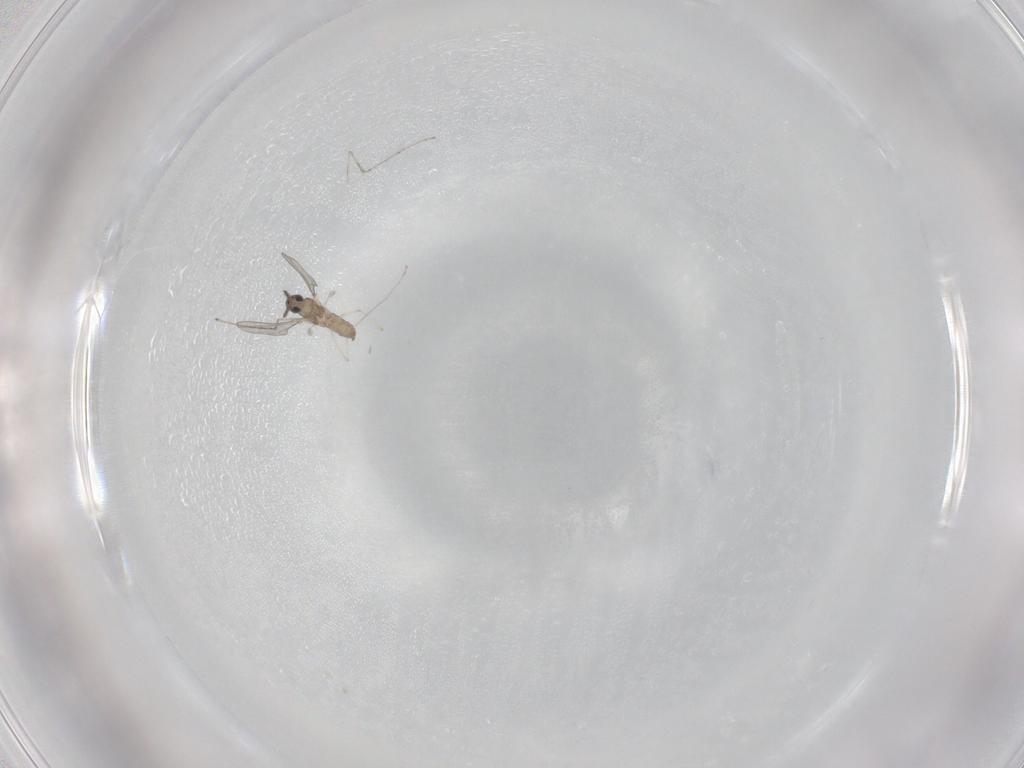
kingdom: Animalia
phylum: Arthropoda
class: Insecta
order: Diptera
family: Cecidomyiidae
